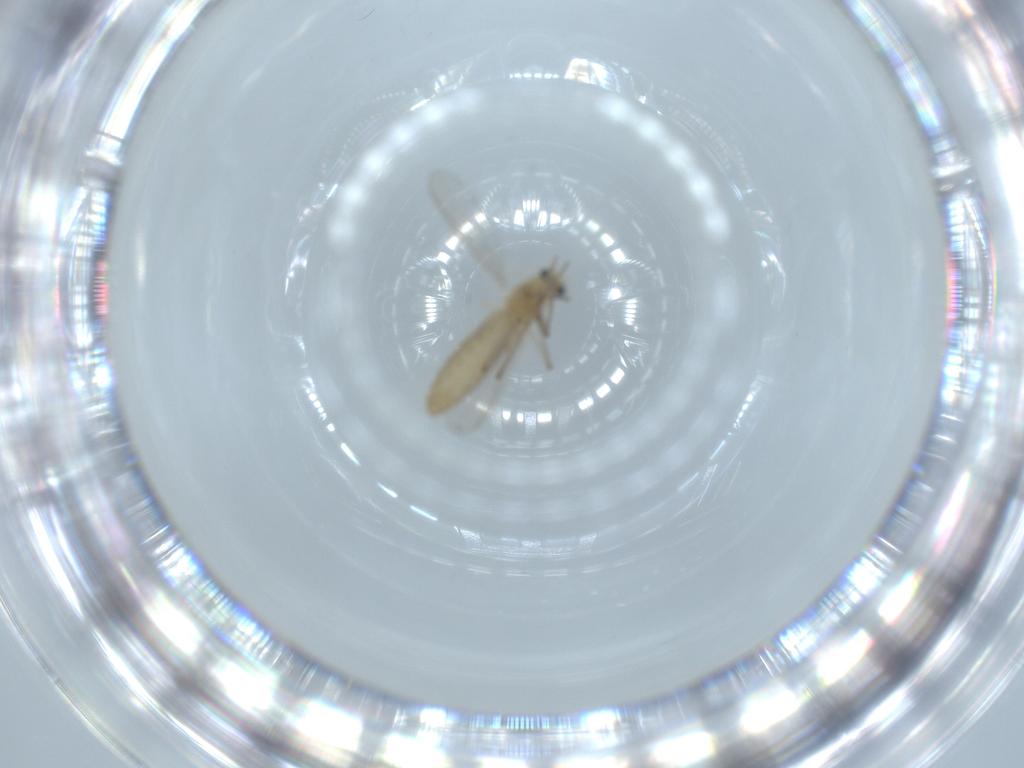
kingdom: Animalia
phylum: Arthropoda
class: Insecta
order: Diptera
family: Chironomidae
